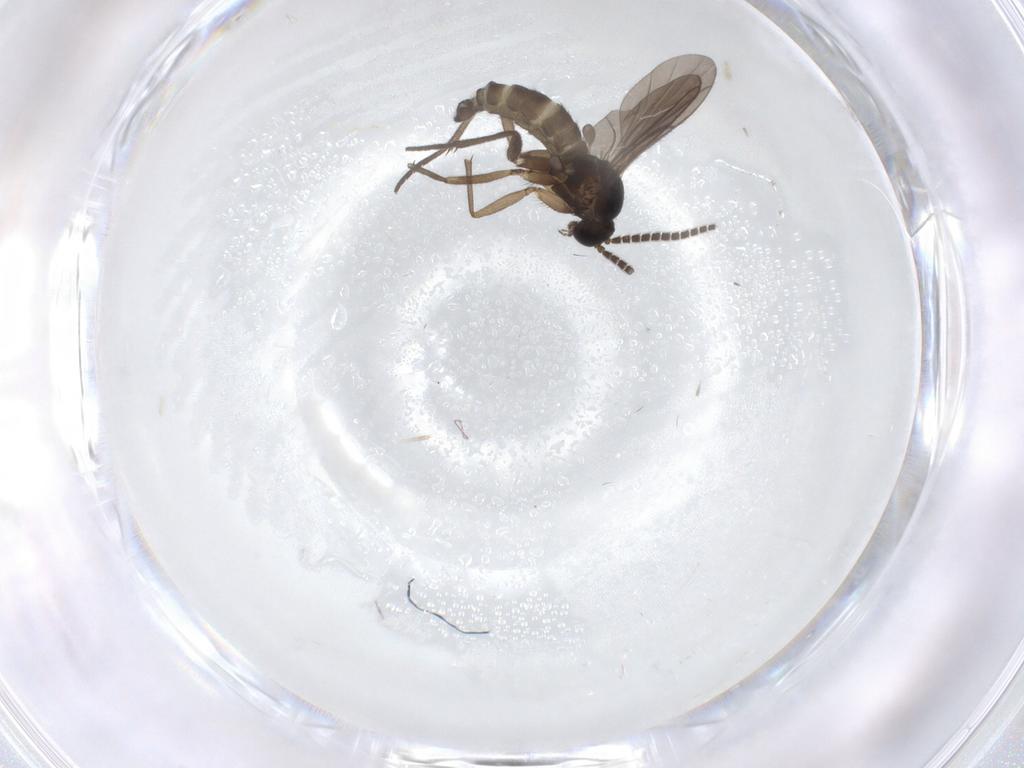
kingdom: Animalia
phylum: Arthropoda
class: Insecta
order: Diptera
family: Sciaridae
